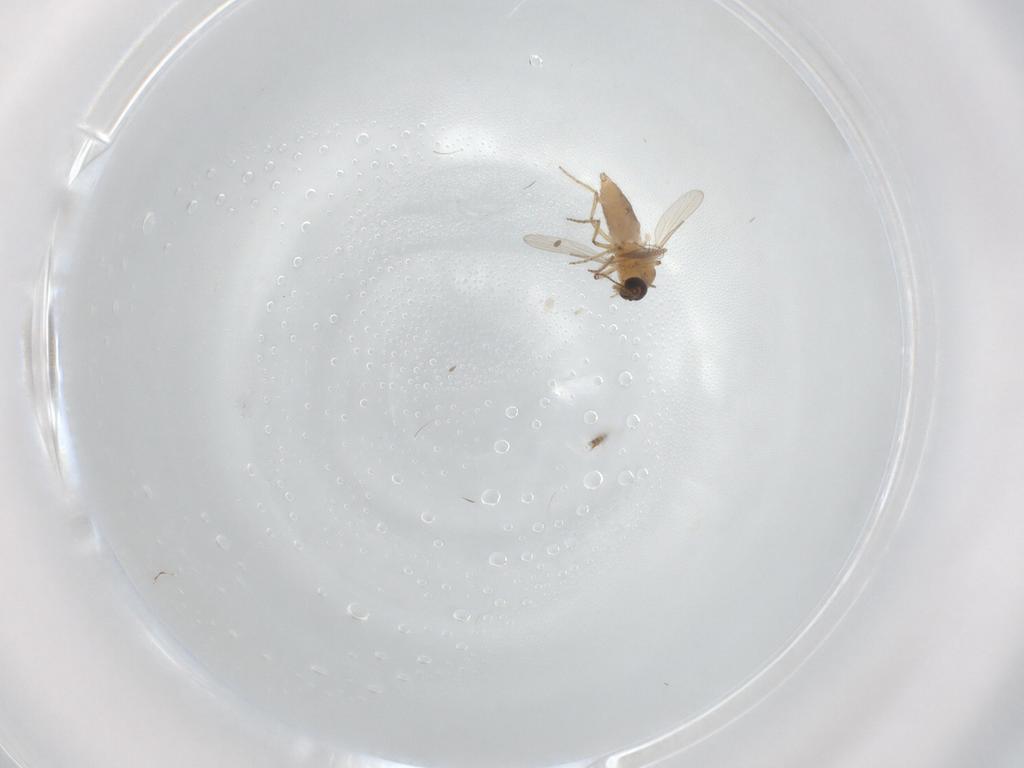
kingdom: Animalia
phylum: Arthropoda
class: Insecta
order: Diptera
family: Ceratopogonidae
